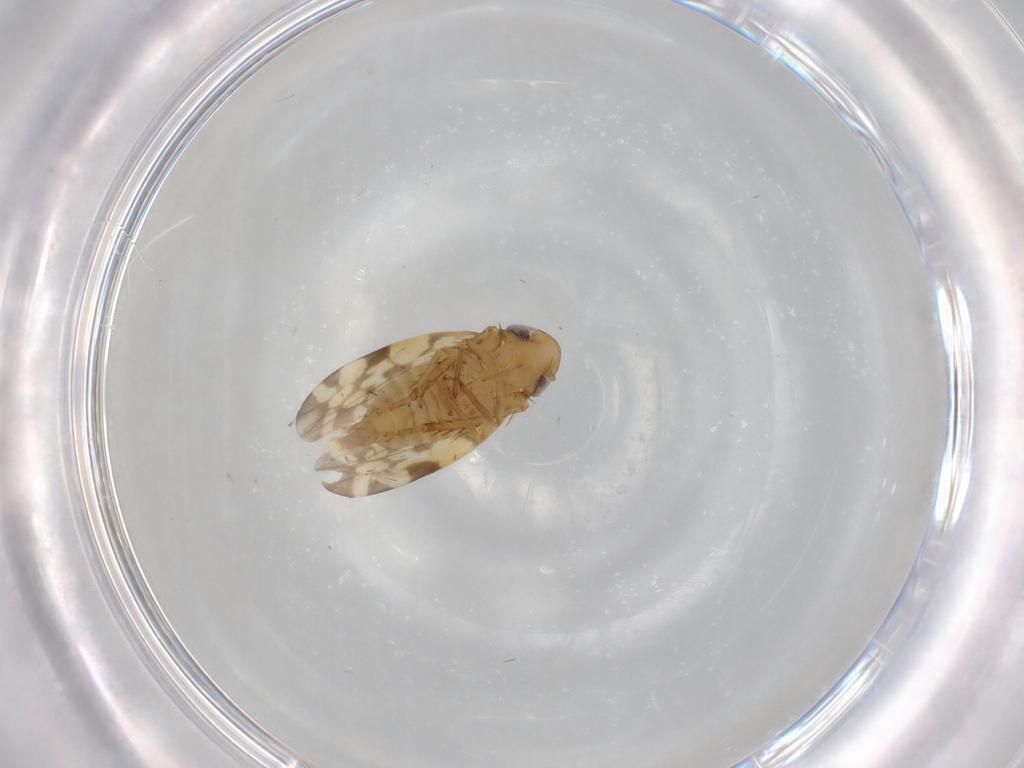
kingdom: Animalia
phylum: Arthropoda
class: Insecta
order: Hemiptera
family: Cicadellidae
